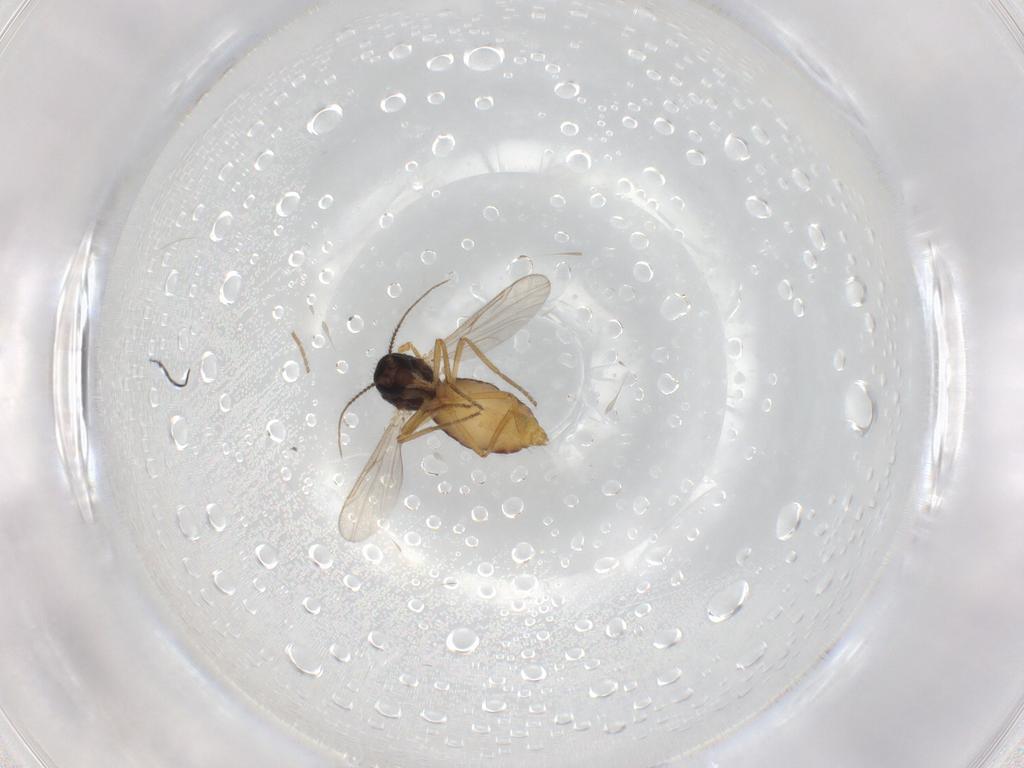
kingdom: Animalia
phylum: Arthropoda
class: Insecta
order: Diptera
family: Ceratopogonidae
